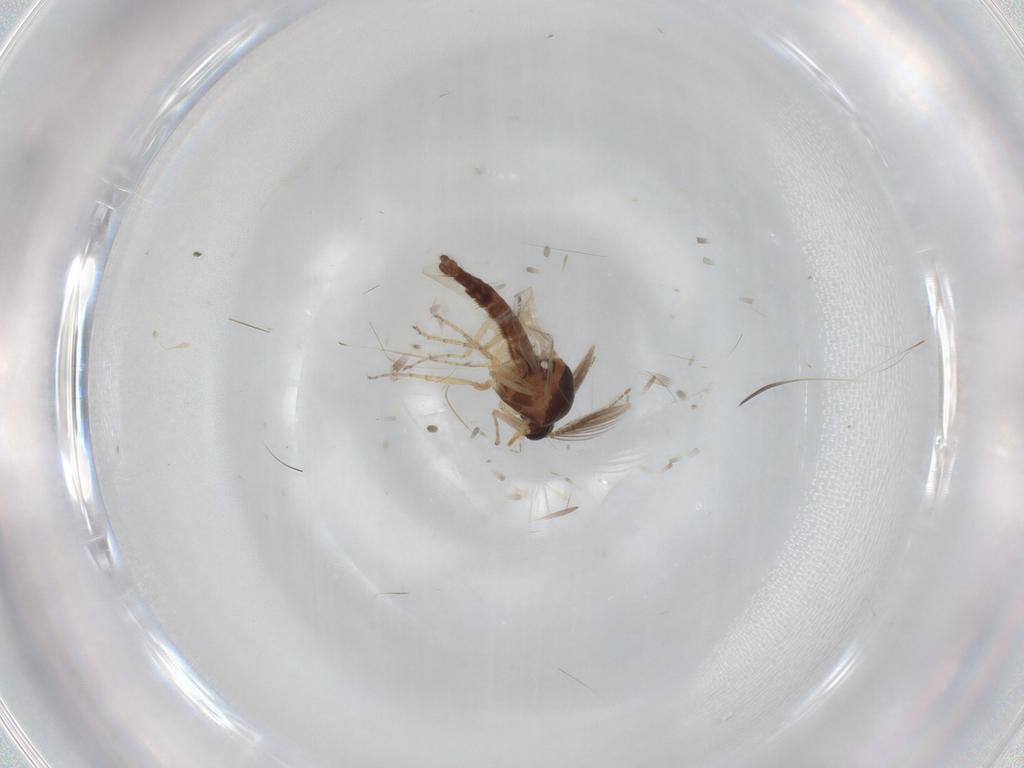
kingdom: Animalia
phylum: Arthropoda
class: Insecta
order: Diptera
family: Ceratopogonidae
